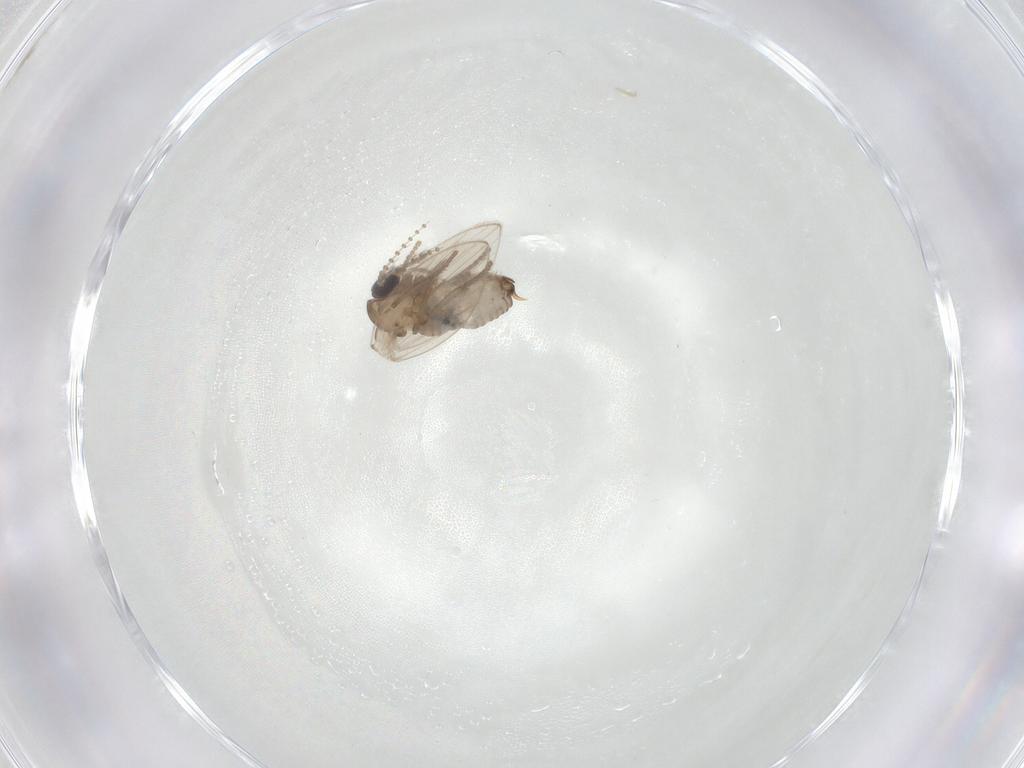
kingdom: Animalia
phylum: Arthropoda
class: Insecta
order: Diptera
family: Psychodidae
